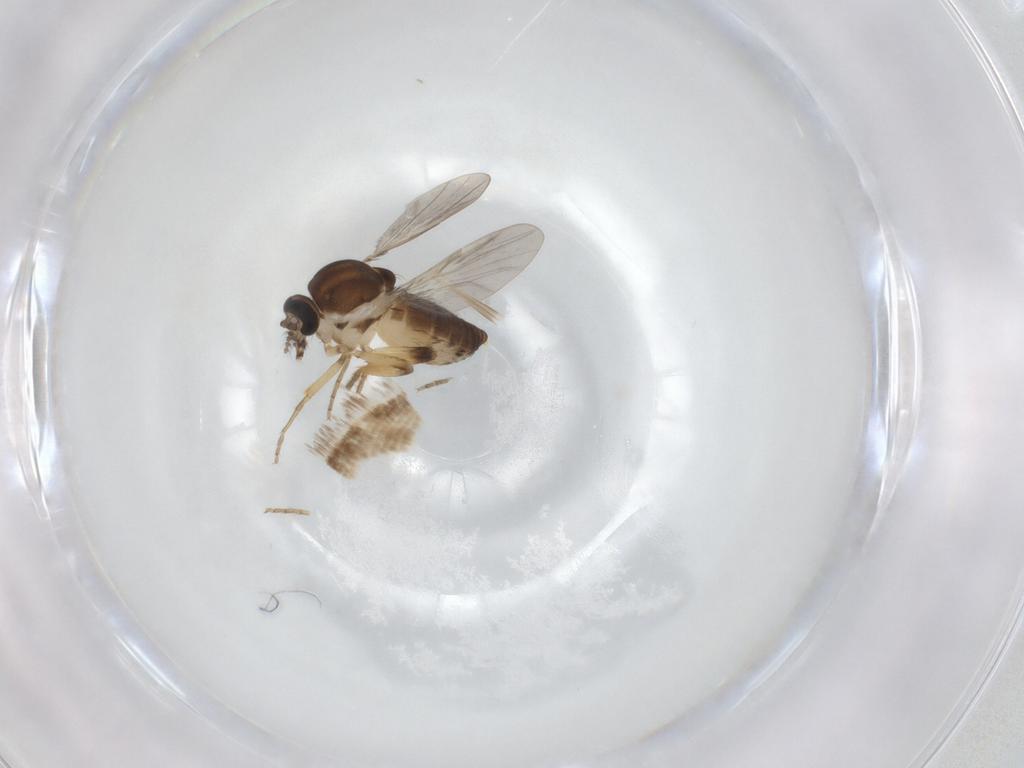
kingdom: Animalia
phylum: Arthropoda
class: Insecta
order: Diptera
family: Ceratopogonidae
